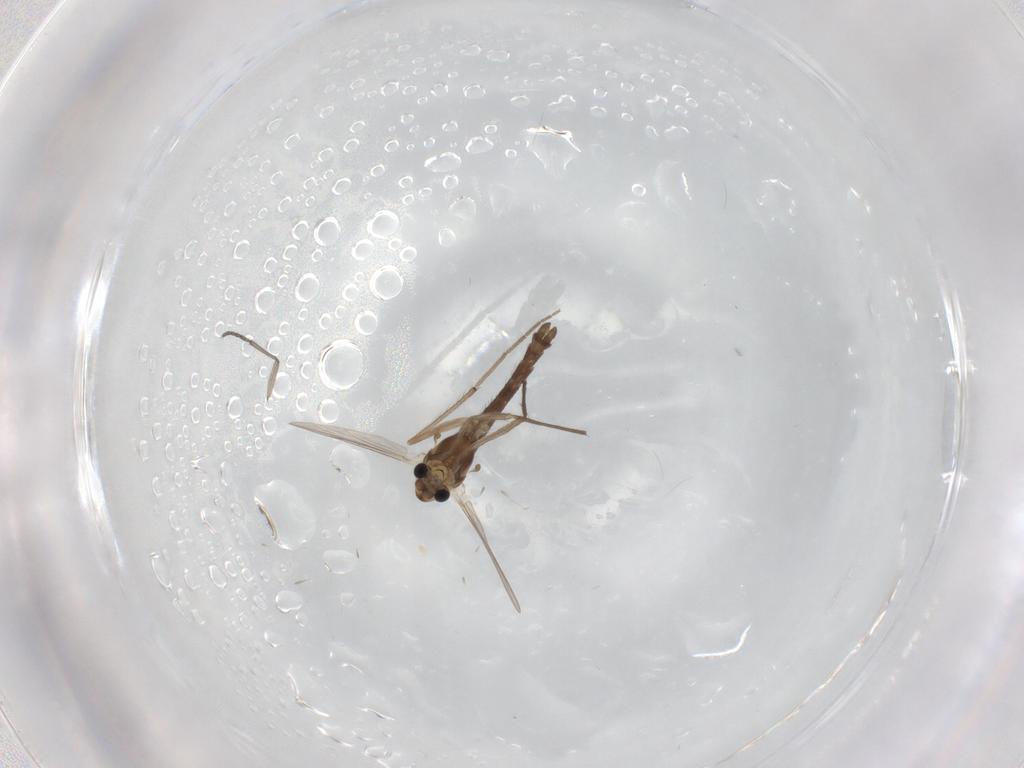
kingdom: Animalia
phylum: Arthropoda
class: Insecta
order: Diptera
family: Chironomidae
